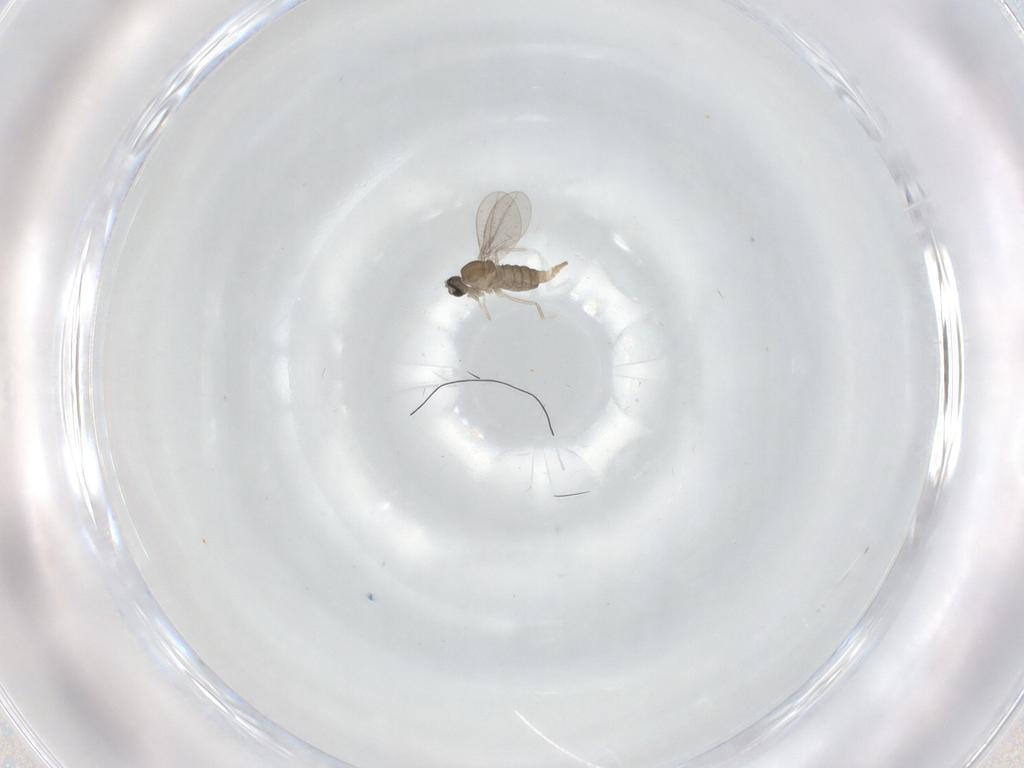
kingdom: Animalia
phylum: Arthropoda
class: Insecta
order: Diptera
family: Cecidomyiidae
